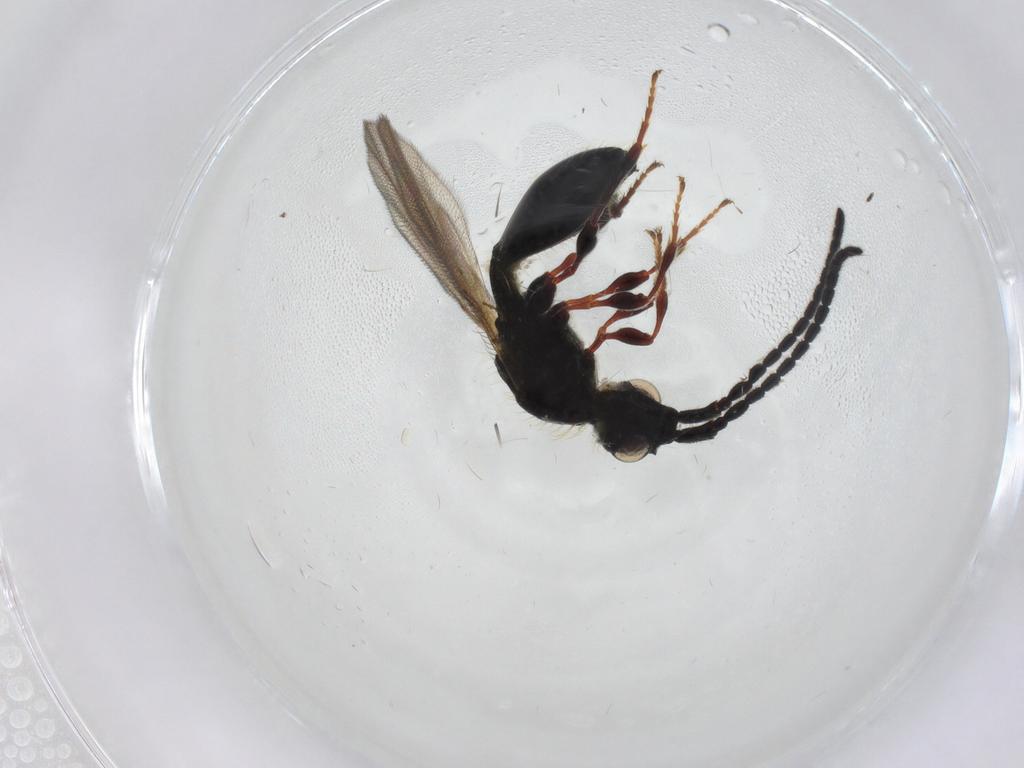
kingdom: Animalia
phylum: Arthropoda
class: Insecta
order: Hymenoptera
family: Diapriidae
